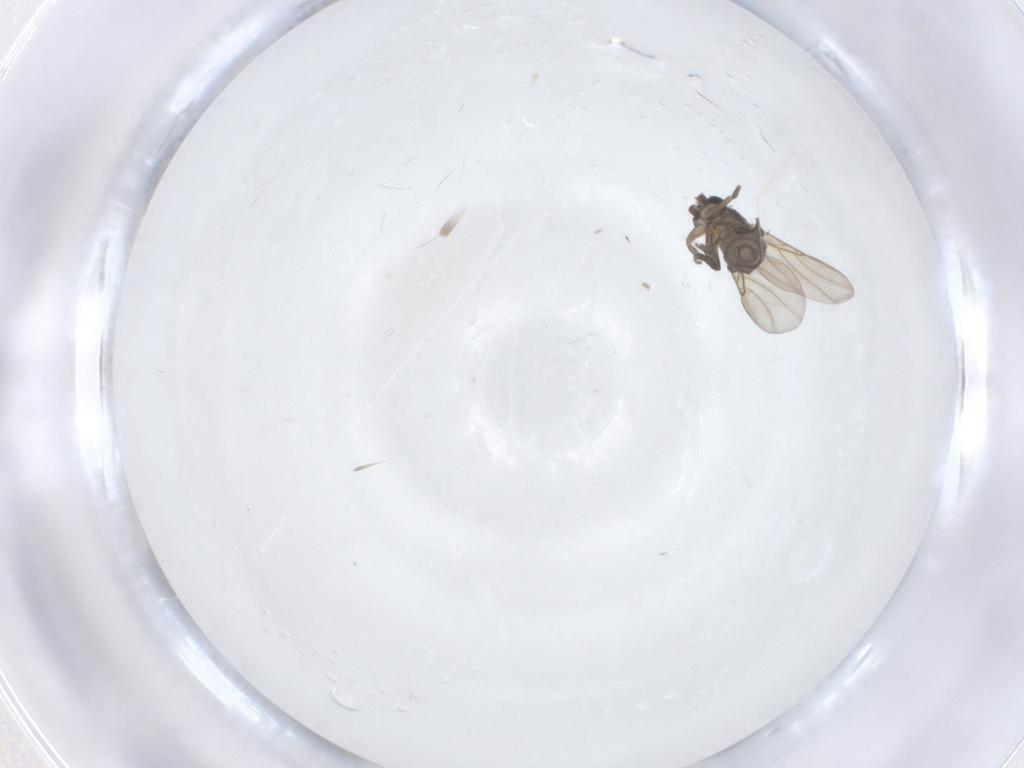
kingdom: Animalia
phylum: Arthropoda
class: Insecta
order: Diptera
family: Phoridae
